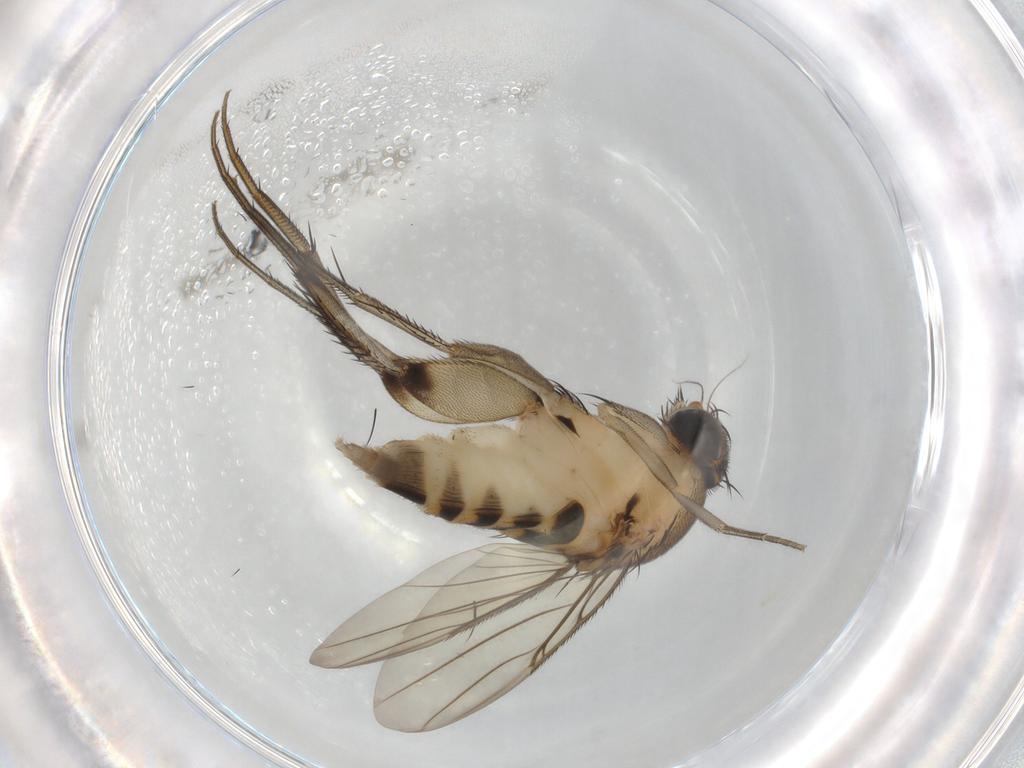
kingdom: Animalia
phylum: Arthropoda
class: Insecta
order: Diptera
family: Phoridae
